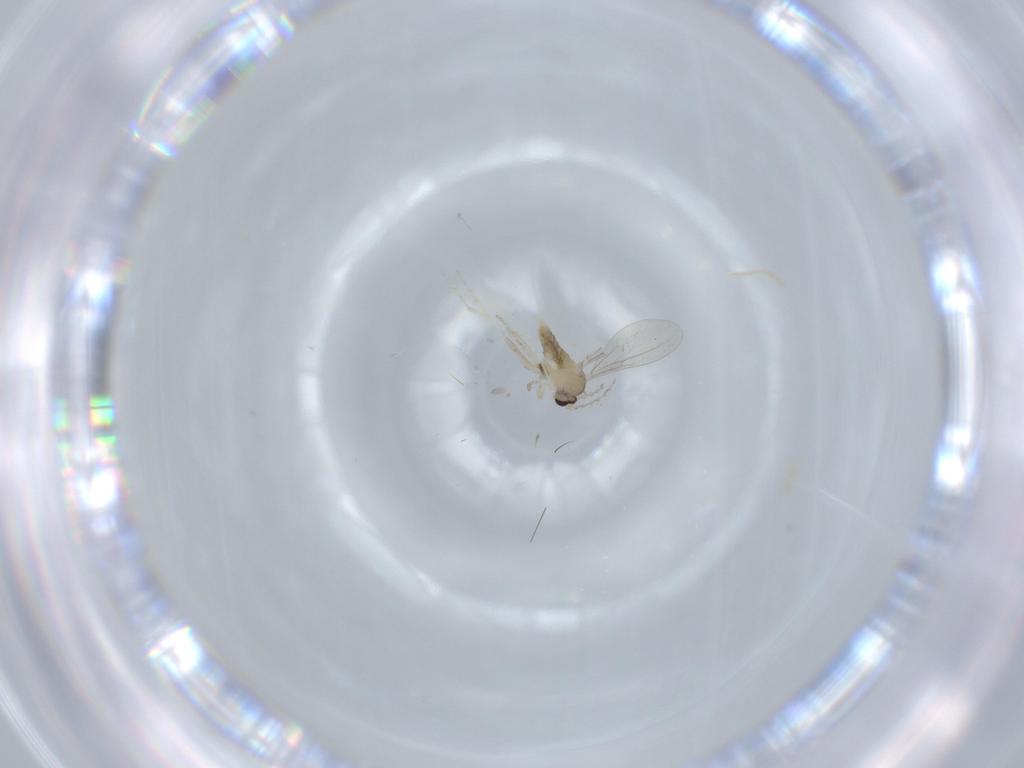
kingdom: Animalia
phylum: Arthropoda
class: Insecta
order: Diptera
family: Cecidomyiidae
